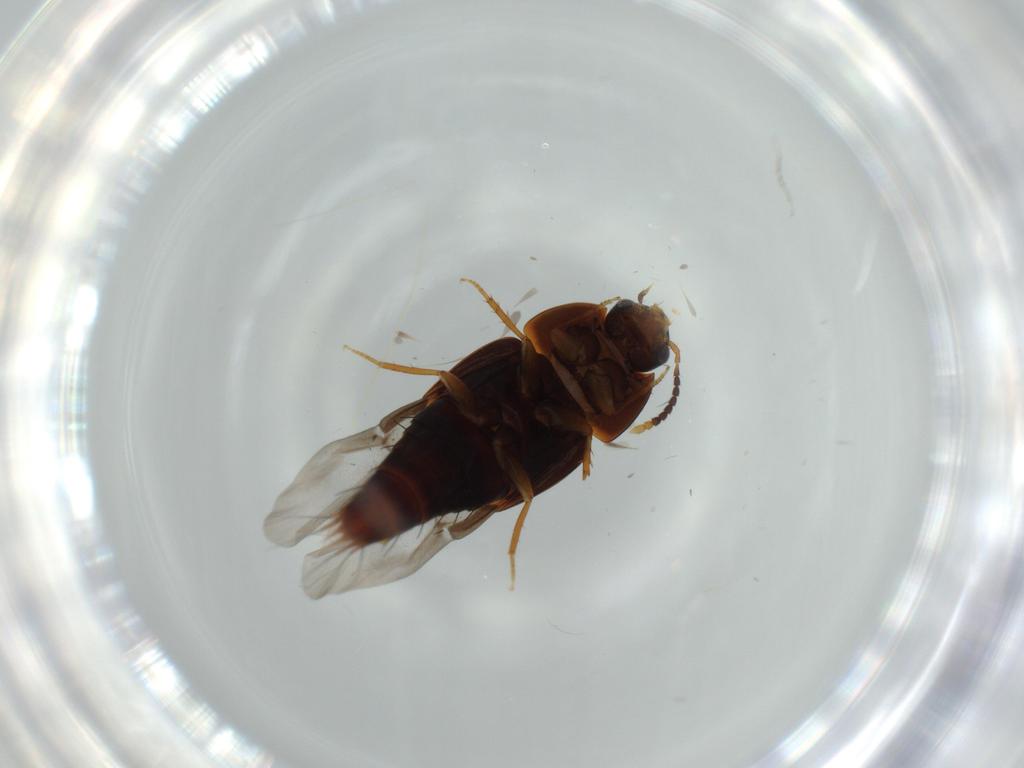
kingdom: Animalia
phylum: Arthropoda
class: Insecta
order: Coleoptera
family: Staphylinidae
